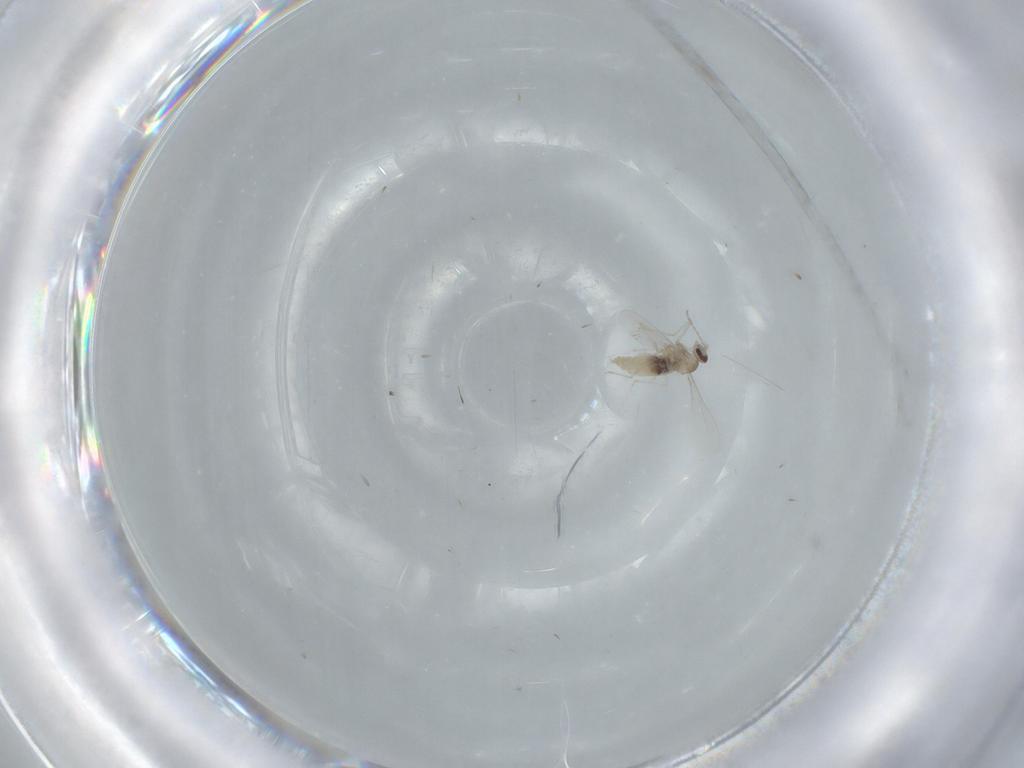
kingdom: Animalia
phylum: Arthropoda
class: Insecta
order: Diptera
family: Cecidomyiidae
